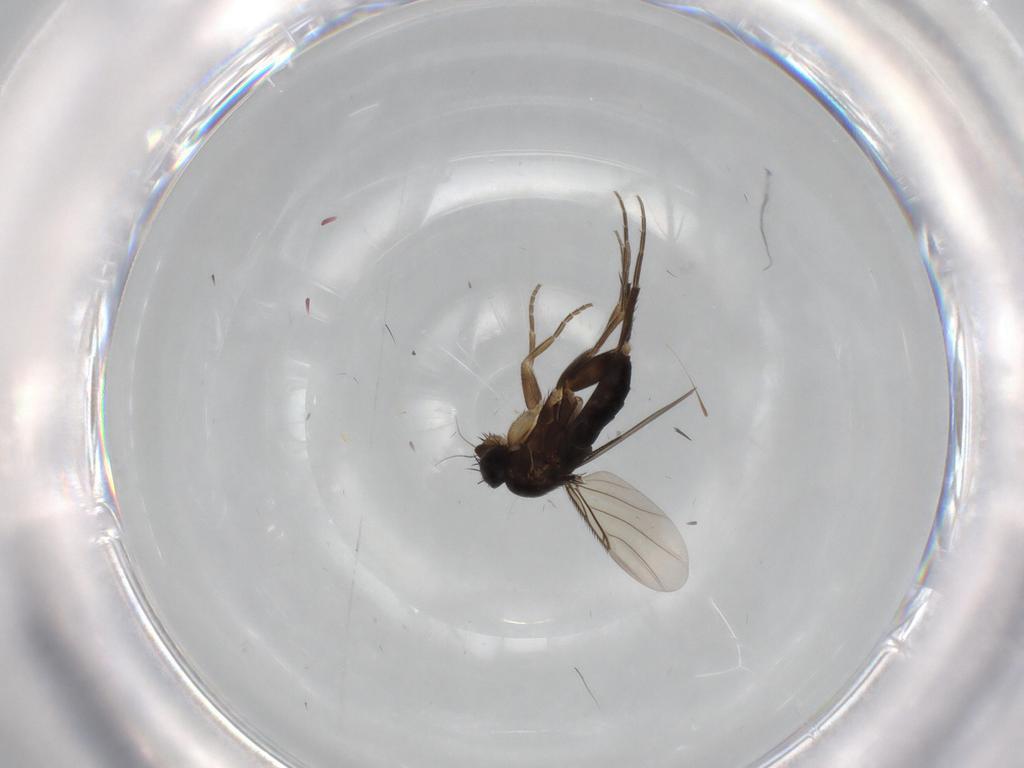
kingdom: Animalia
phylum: Arthropoda
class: Insecta
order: Diptera
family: Phoridae
